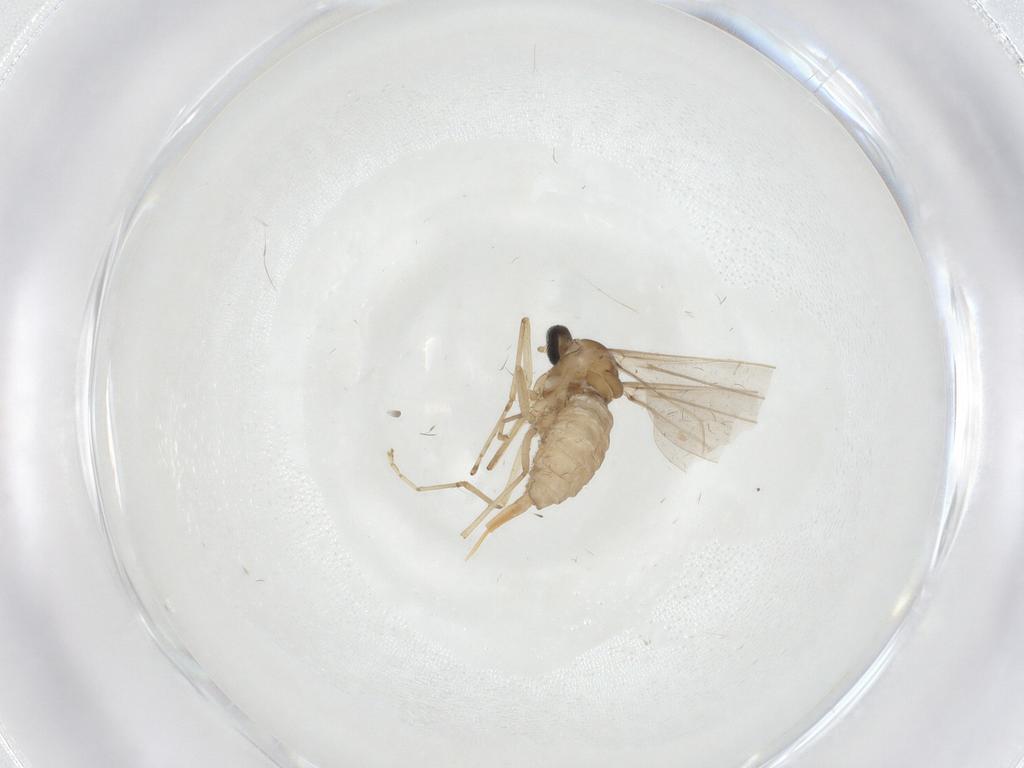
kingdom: Animalia
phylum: Arthropoda
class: Insecta
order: Diptera
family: Cecidomyiidae
